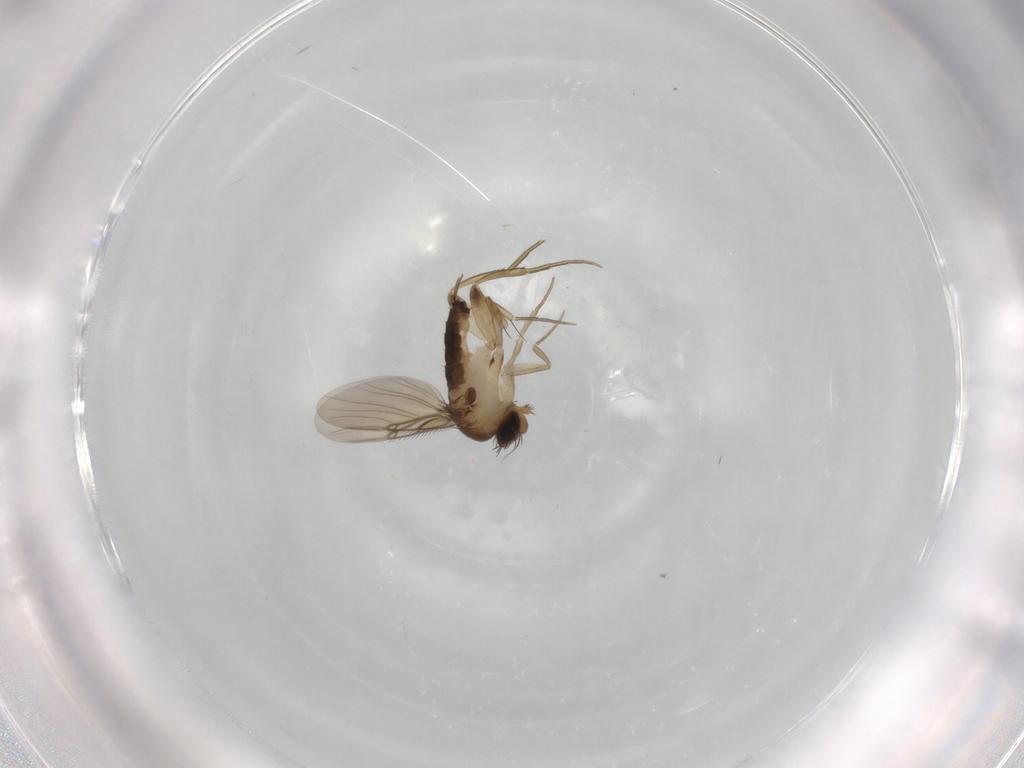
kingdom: Animalia
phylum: Arthropoda
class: Insecta
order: Diptera
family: Phoridae
